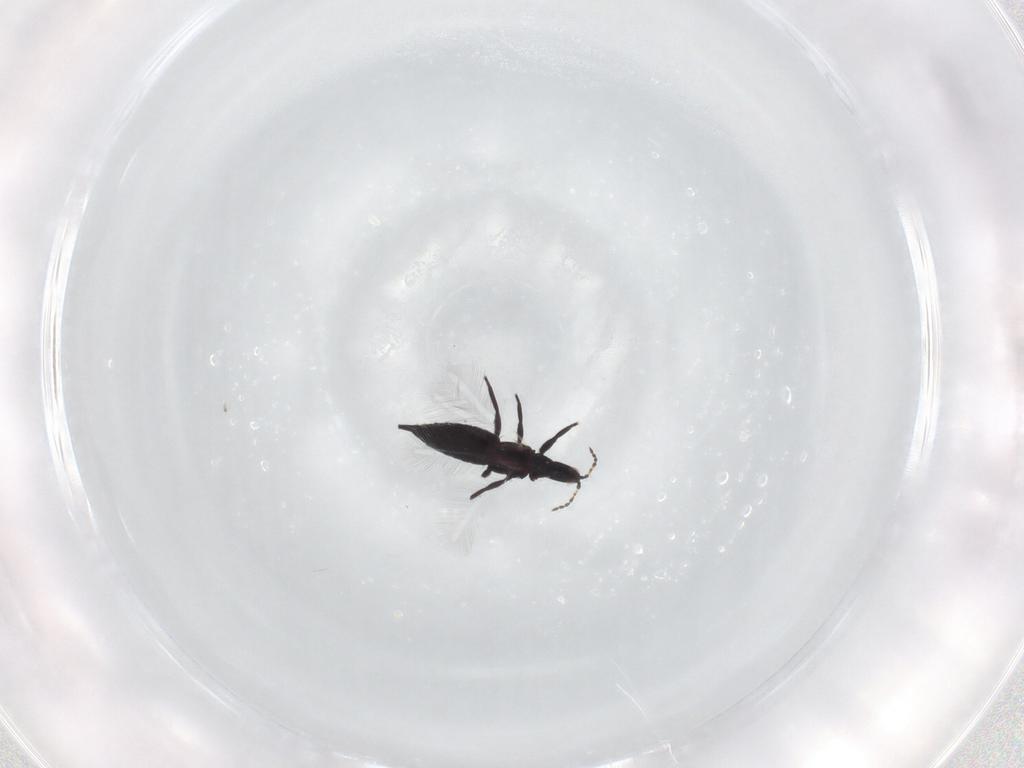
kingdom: Animalia
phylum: Arthropoda
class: Insecta
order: Thysanoptera
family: Phlaeothripidae
